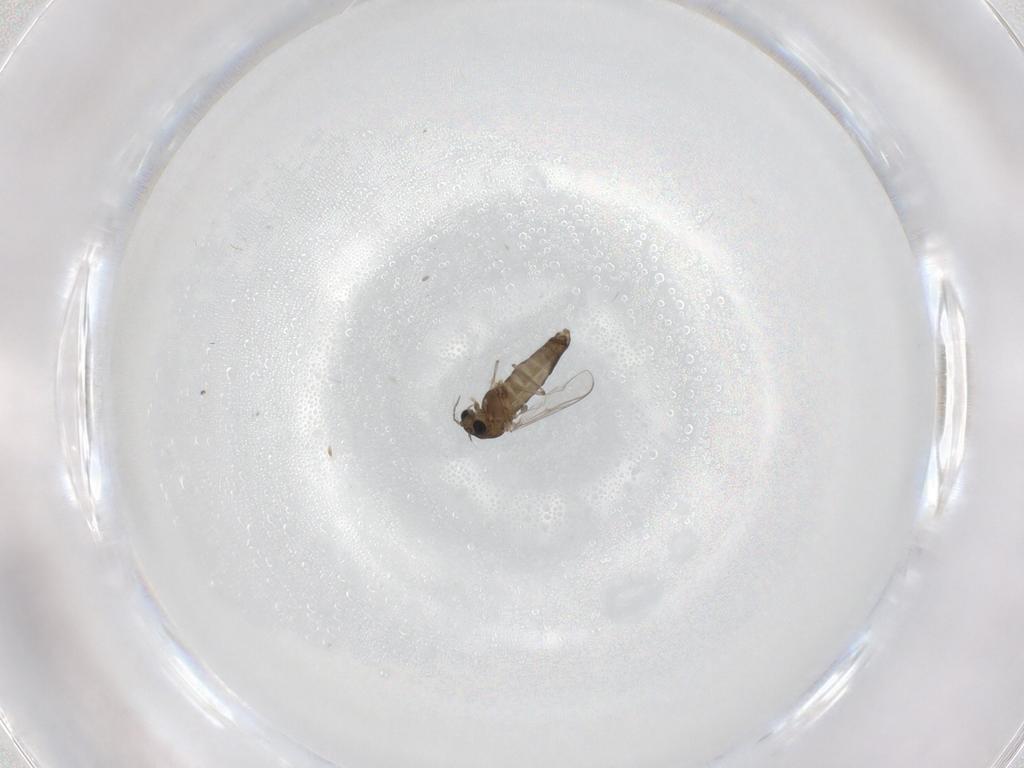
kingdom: Animalia
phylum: Arthropoda
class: Insecta
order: Diptera
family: Chironomidae
